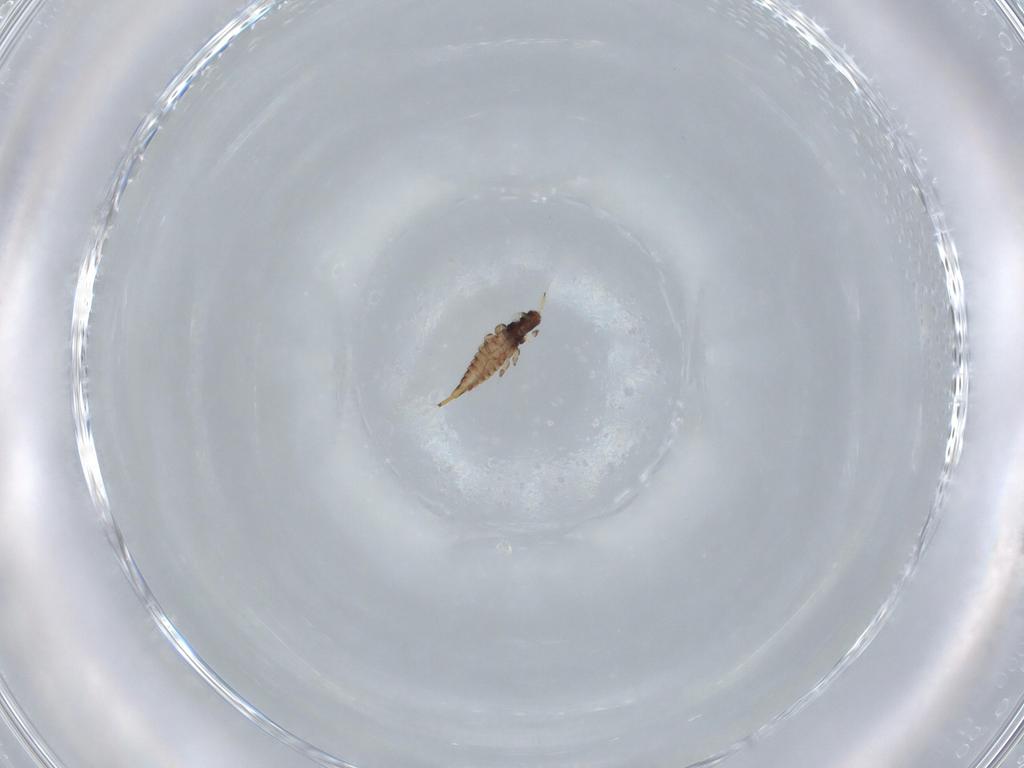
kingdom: Animalia
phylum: Arthropoda
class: Insecta
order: Thysanoptera
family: Phlaeothripidae
